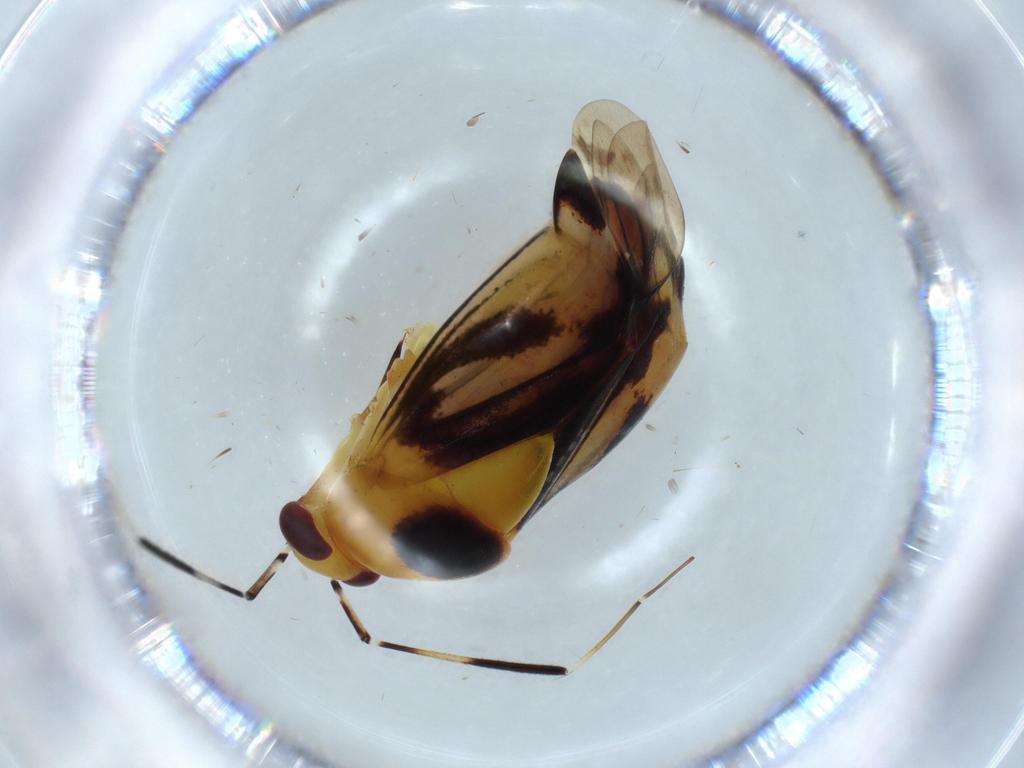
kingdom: Animalia
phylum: Arthropoda
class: Insecta
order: Hemiptera
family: Miridae
